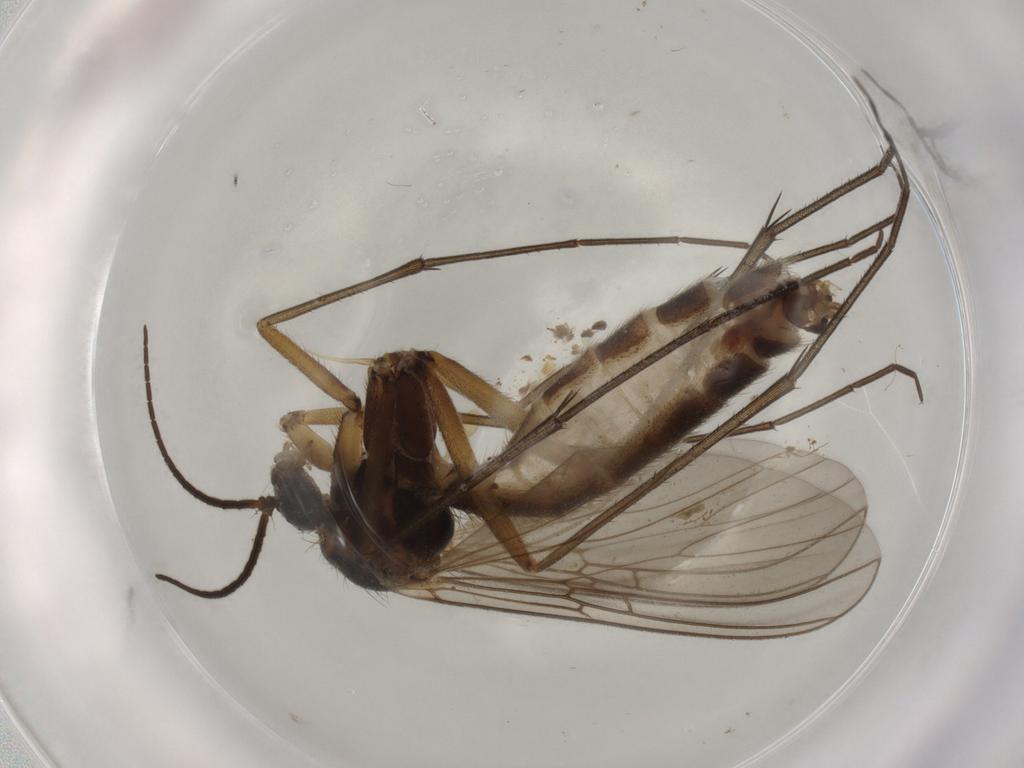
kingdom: Animalia
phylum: Arthropoda
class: Insecta
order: Diptera
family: Mycetophilidae
